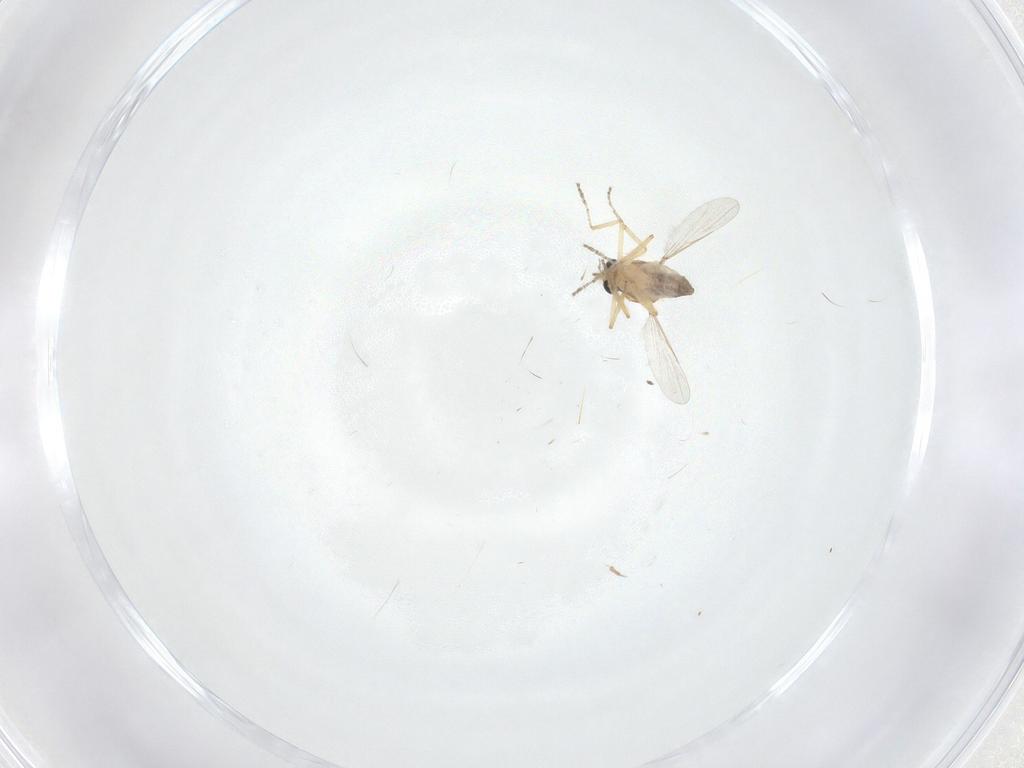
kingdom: Animalia
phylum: Arthropoda
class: Insecta
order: Diptera
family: Ceratopogonidae
